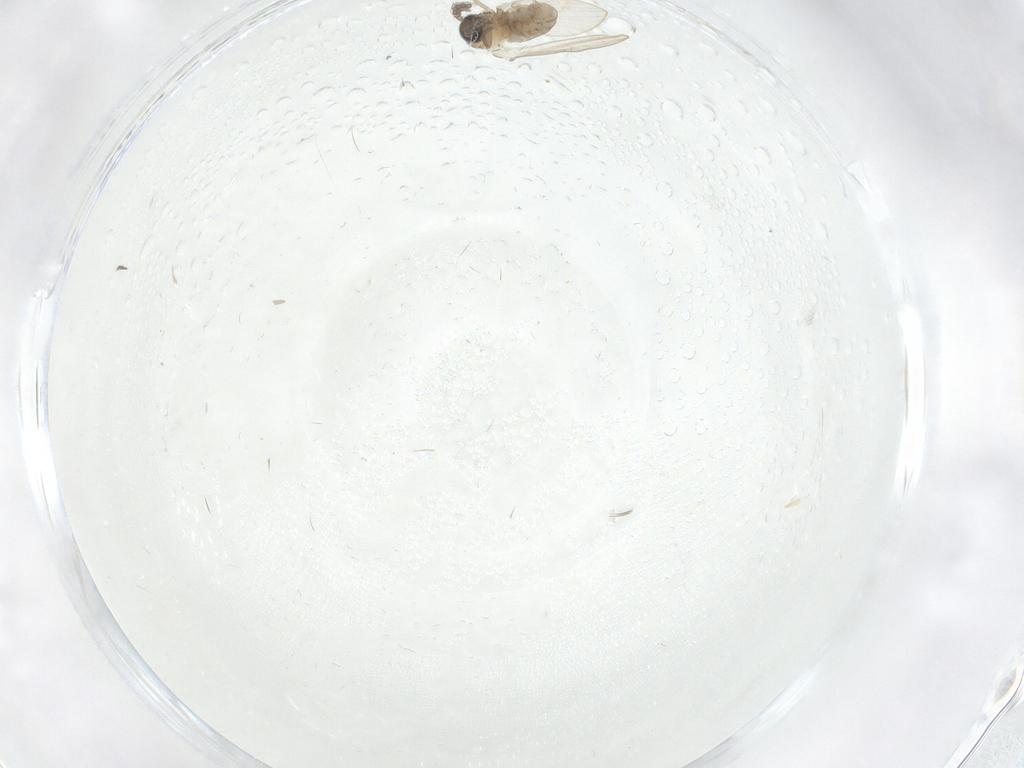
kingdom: Animalia
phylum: Arthropoda
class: Insecta
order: Diptera
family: Psychodidae
